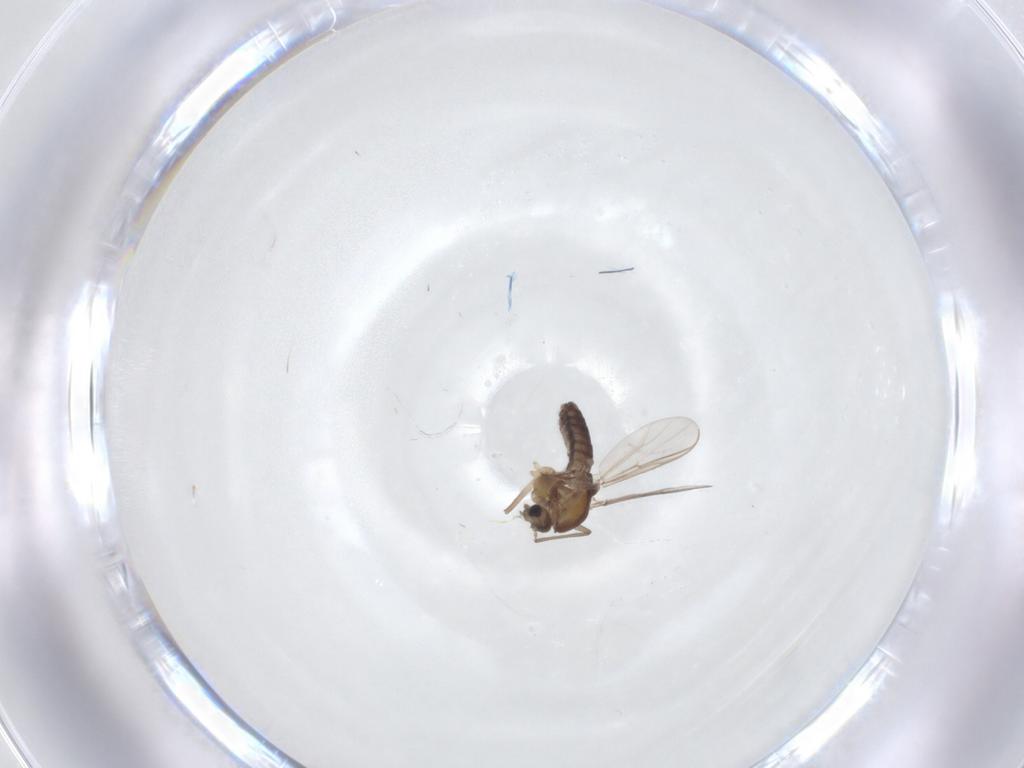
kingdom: Animalia
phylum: Arthropoda
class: Insecta
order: Diptera
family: Chironomidae
